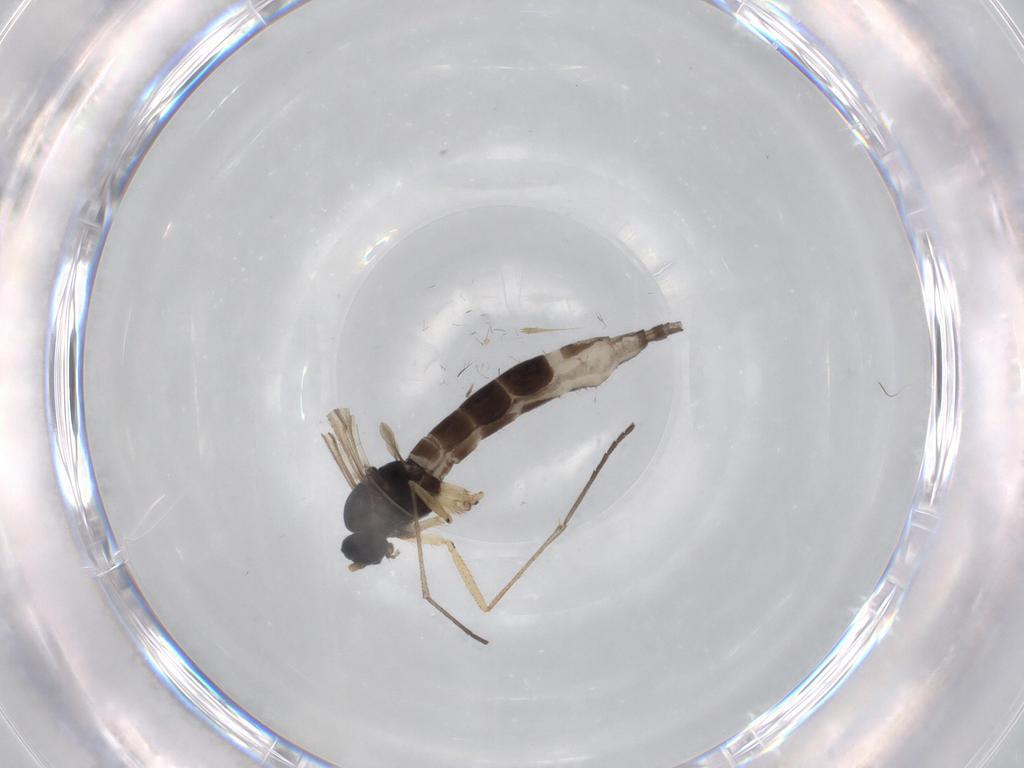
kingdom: Animalia
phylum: Arthropoda
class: Insecta
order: Diptera
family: Sciaridae
